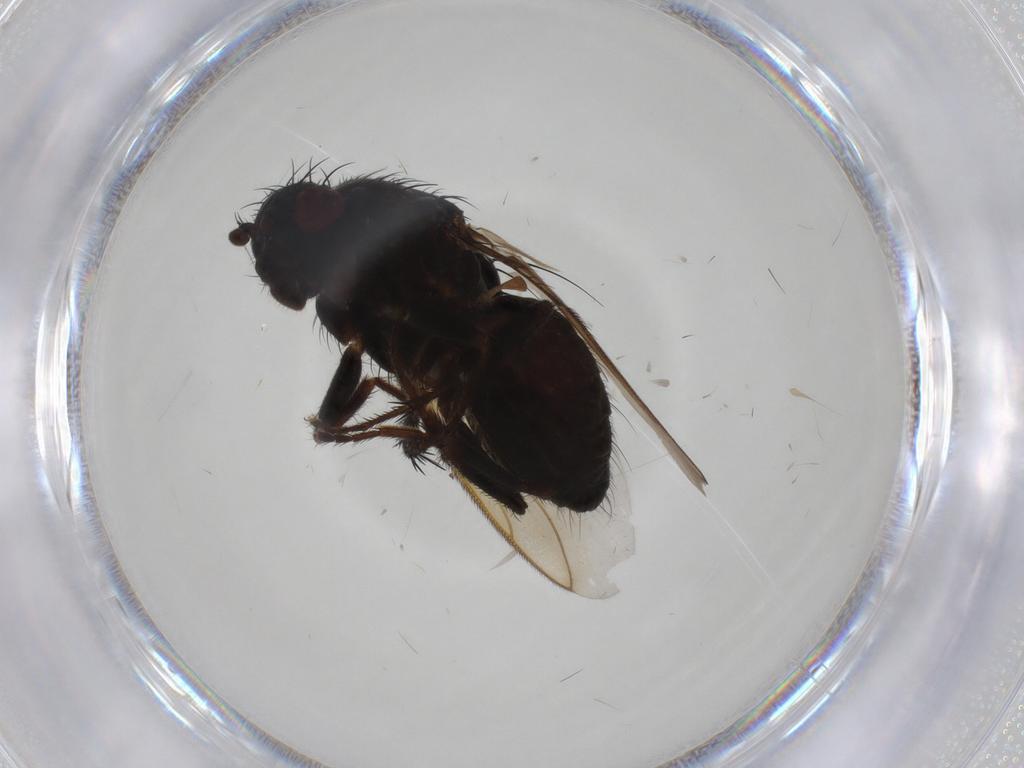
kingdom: Animalia
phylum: Arthropoda
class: Insecta
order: Diptera
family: Sphaeroceridae
